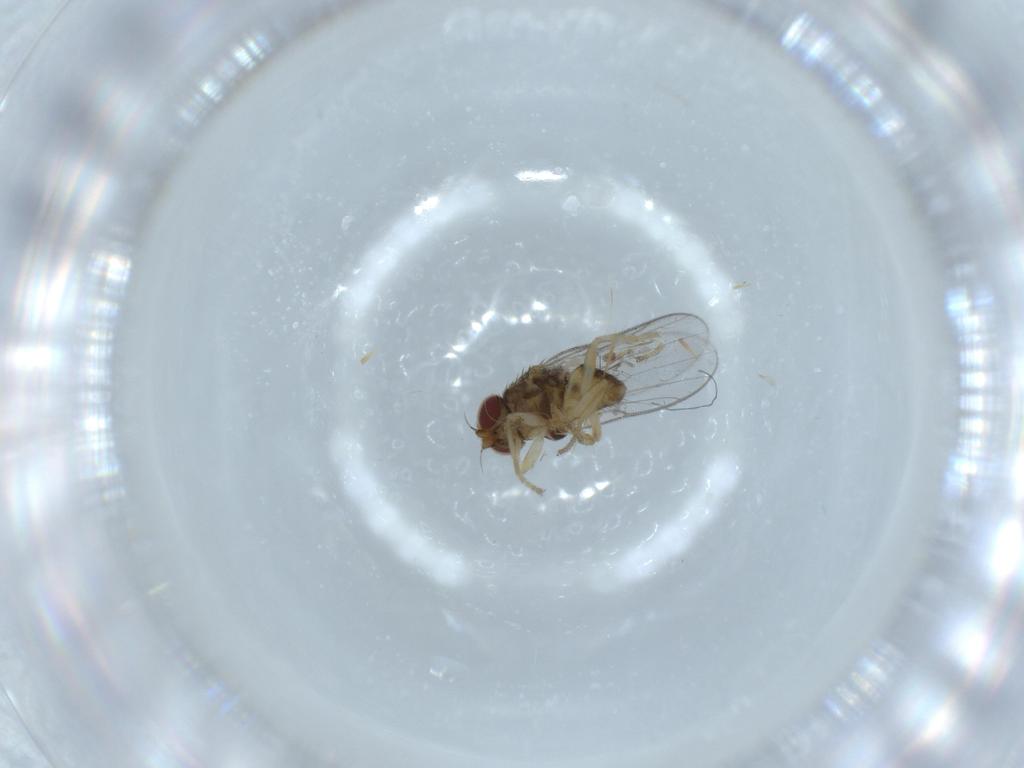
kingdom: Animalia
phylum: Arthropoda
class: Insecta
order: Diptera
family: Chloropidae
